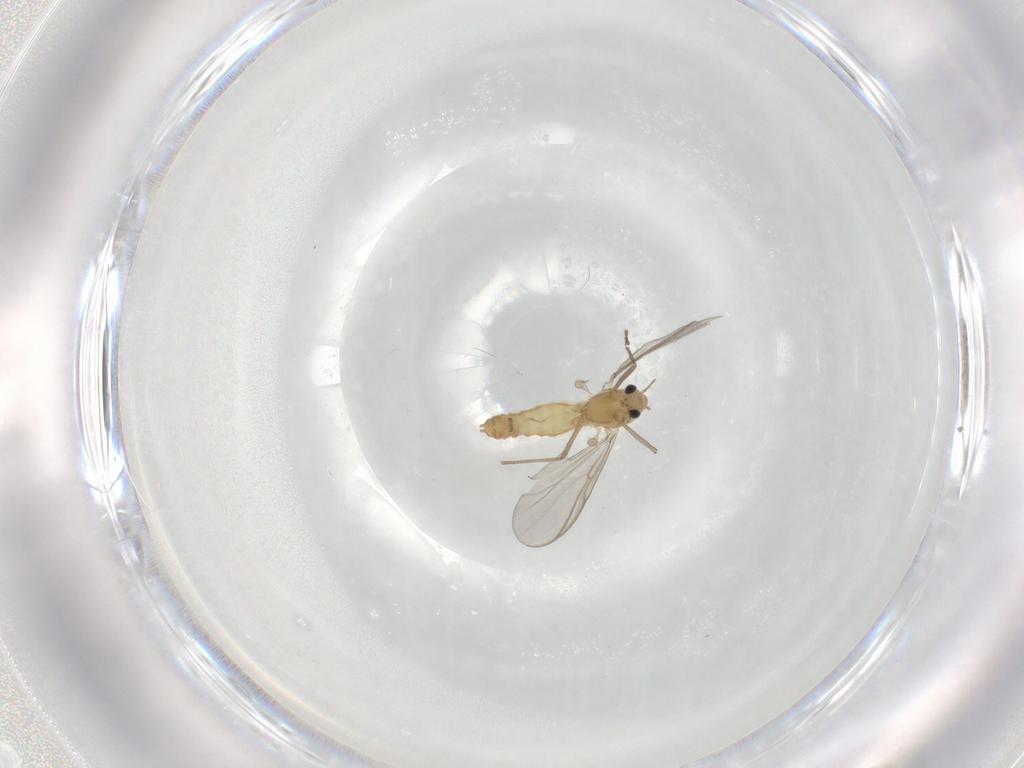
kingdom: Animalia
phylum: Arthropoda
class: Insecta
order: Diptera
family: Chironomidae
